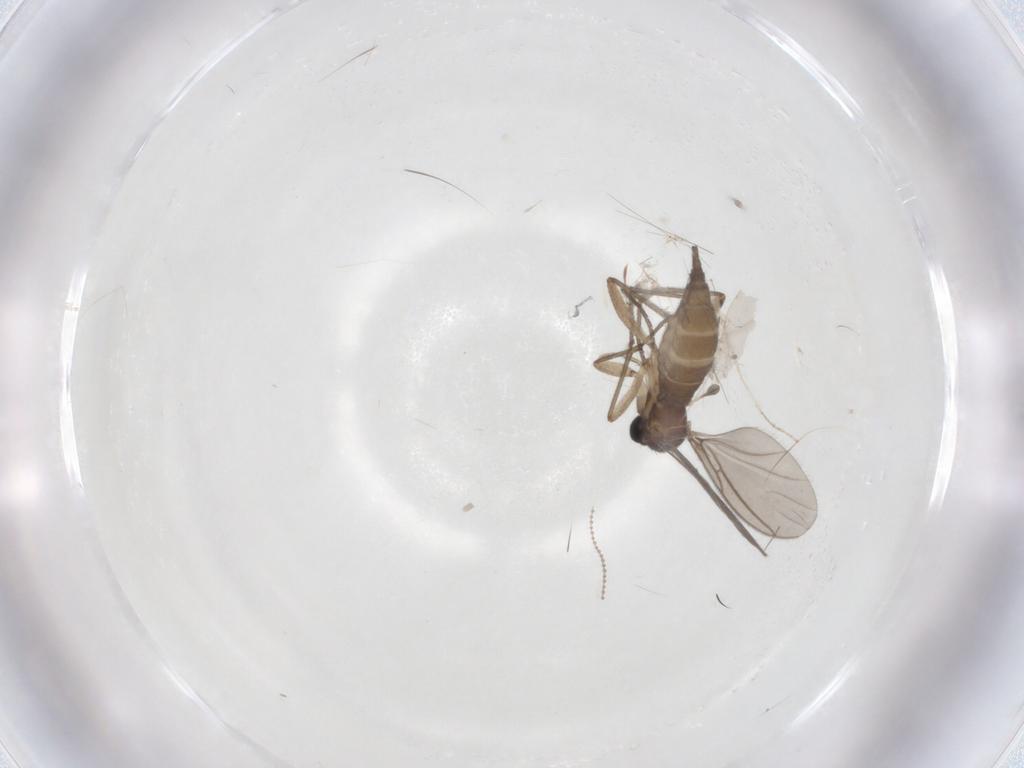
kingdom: Animalia
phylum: Arthropoda
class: Insecta
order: Diptera
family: Sciaridae
